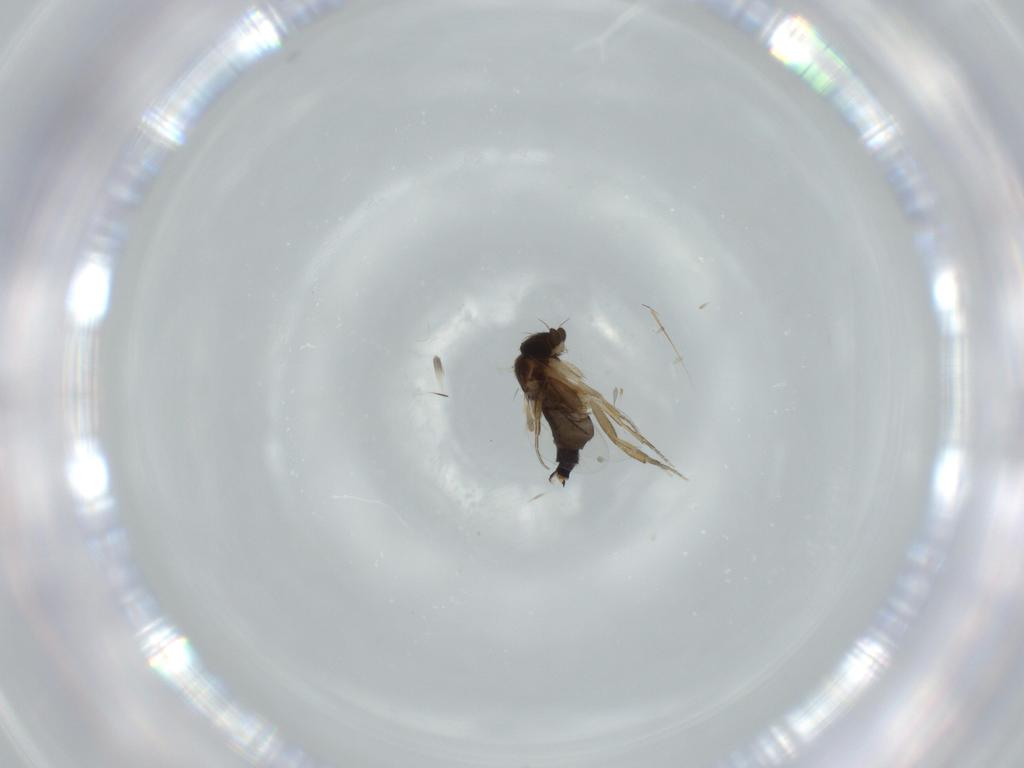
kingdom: Animalia
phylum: Arthropoda
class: Insecta
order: Diptera
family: Phoridae
